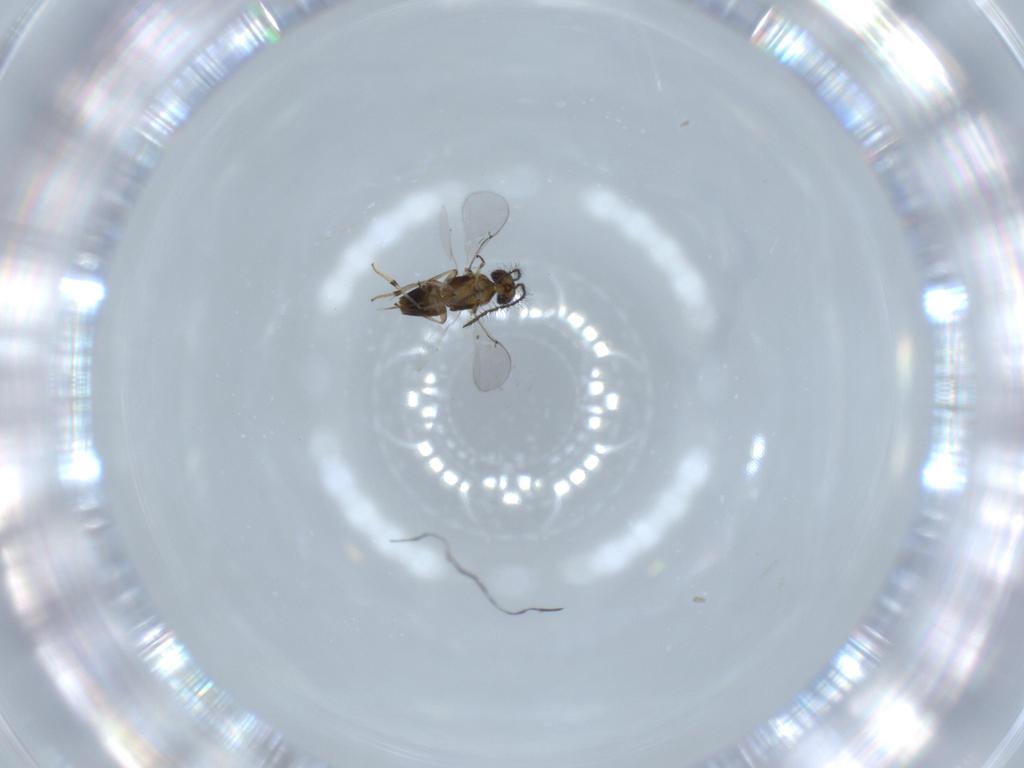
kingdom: Animalia
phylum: Arthropoda
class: Insecta
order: Hymenoptera
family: Encyrtidae
